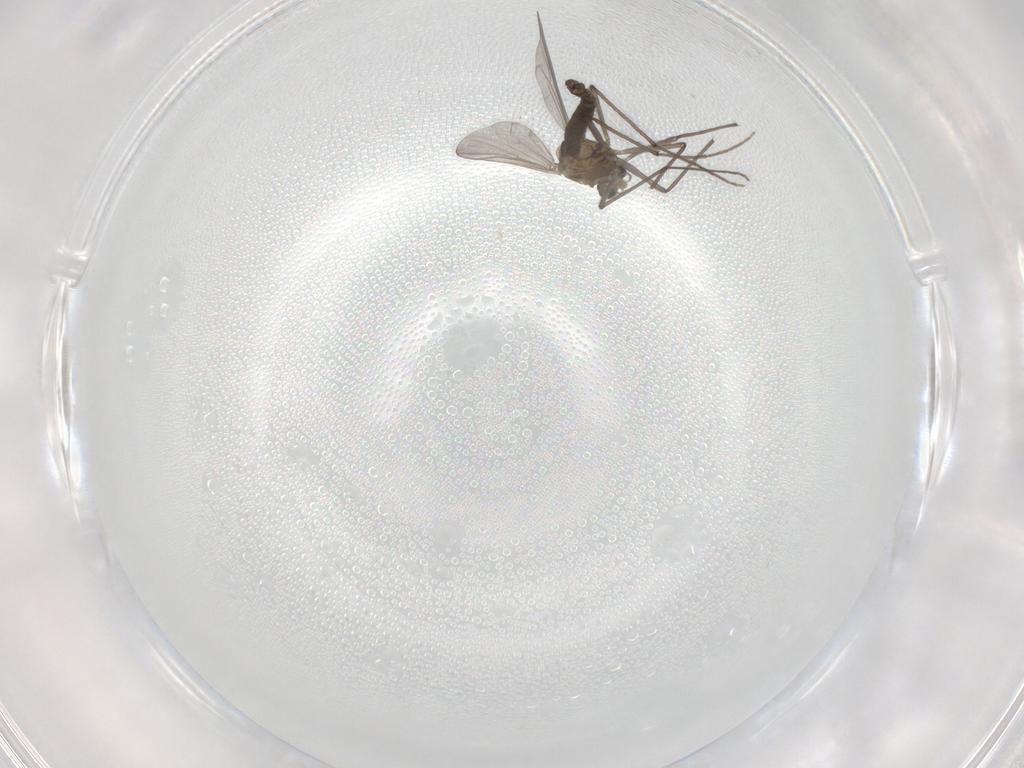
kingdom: Animalia
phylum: Arthropoda
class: Insecta
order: Diptera
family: Chironomidae
